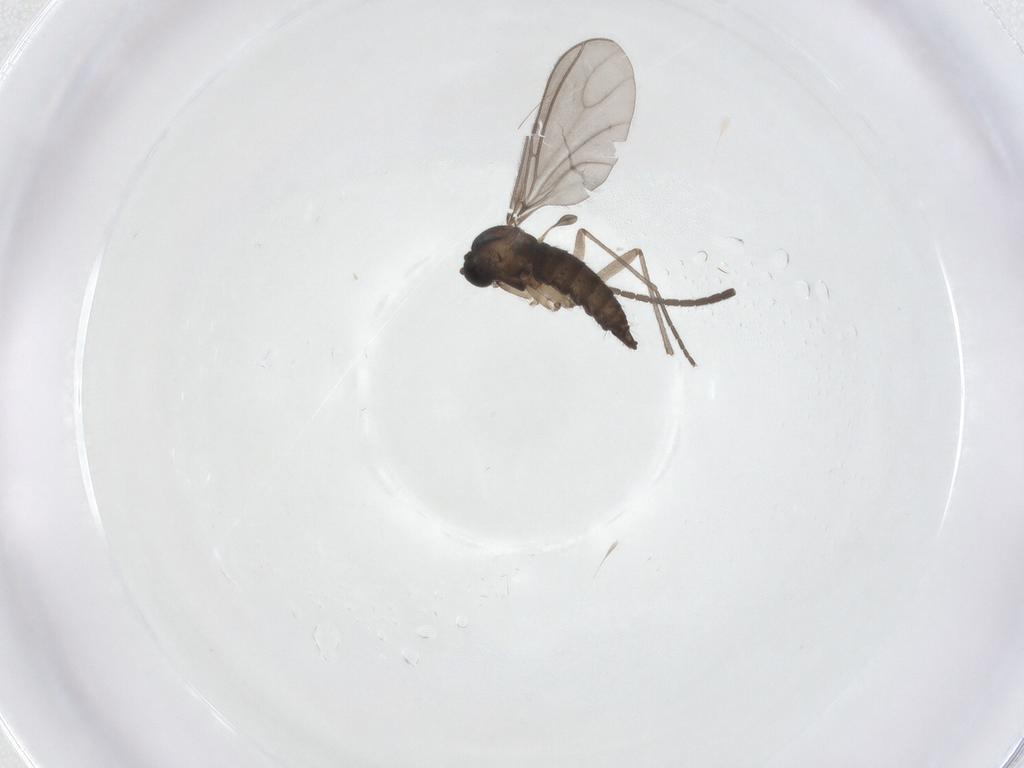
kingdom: Animalia
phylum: Arthropoda
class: Insecta
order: Diptera
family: Sciaridae
